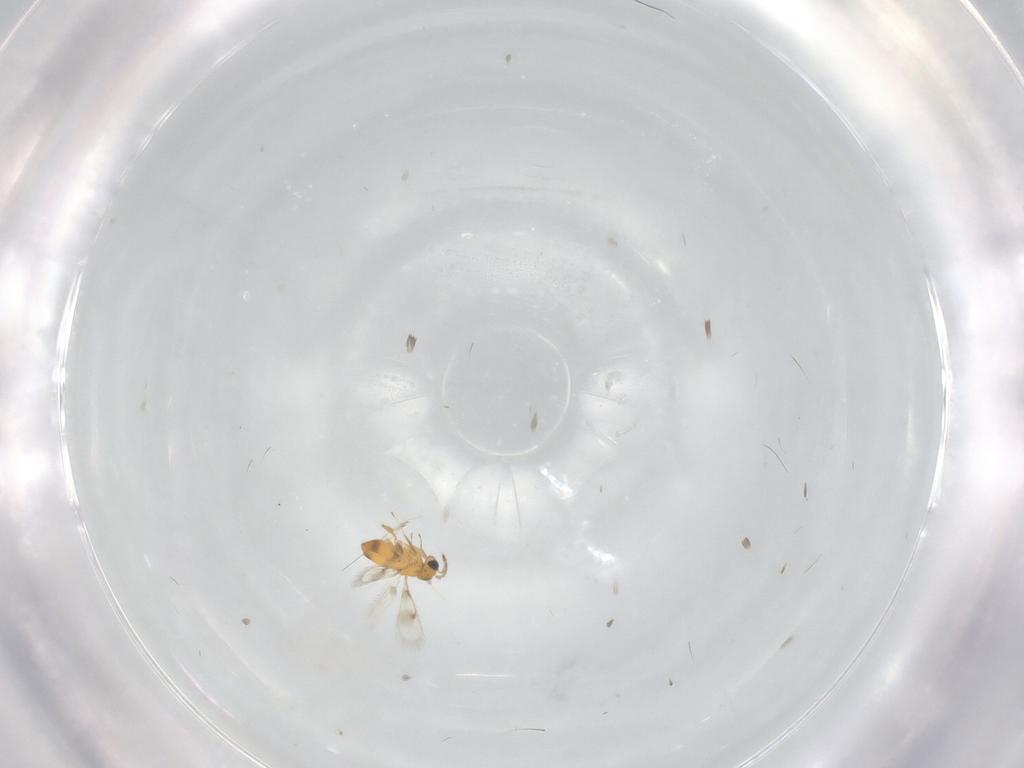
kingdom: Animalia
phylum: Arthropoda
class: Insecta
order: Hymenoptera
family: Aphelinidae
